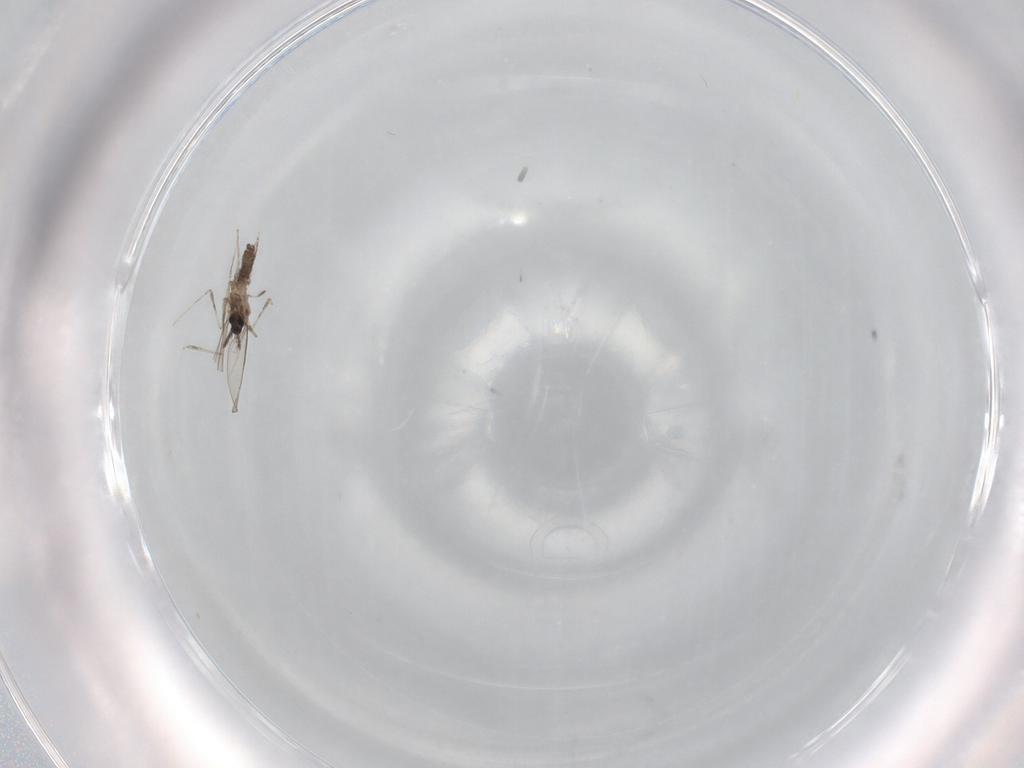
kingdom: Animalia
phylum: Arthropoda
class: Insecta
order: Diptera
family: Cecidomyiidae
